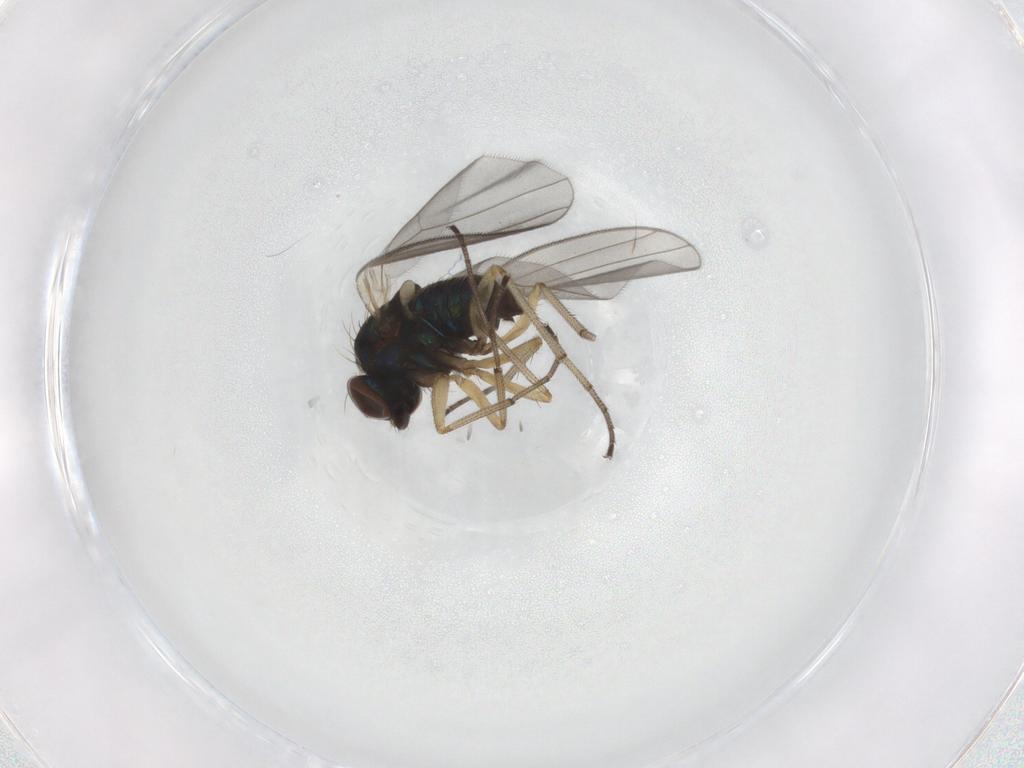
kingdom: Animalia
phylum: Arthropoda
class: Insecta
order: Diptera
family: Dolichopodidae
